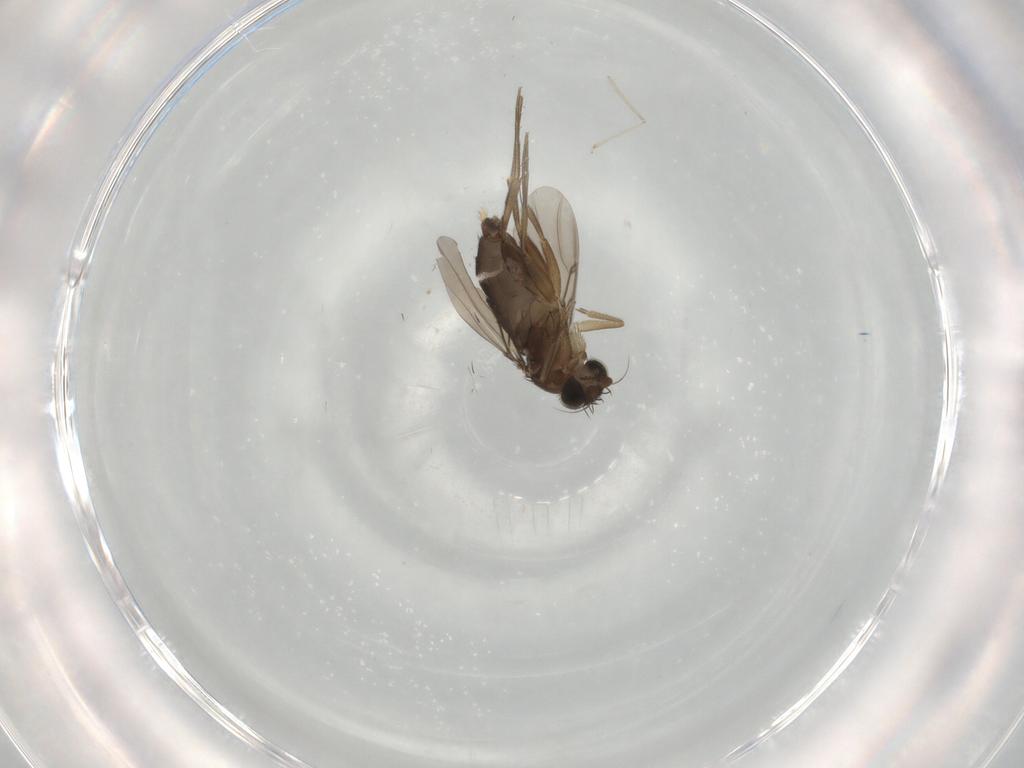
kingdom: Animalia
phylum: Arthropoda
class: Insecta
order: Diptera
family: Phoridae
